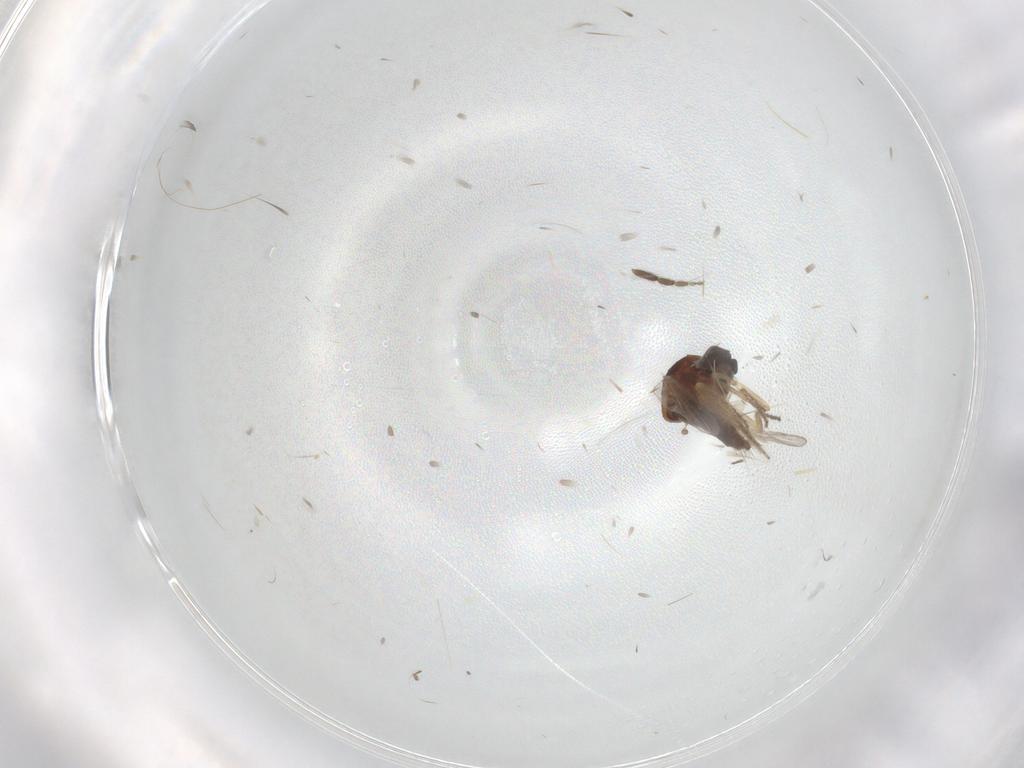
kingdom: Animalia
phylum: Arthropoda
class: Insecta
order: Diptera
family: Ceratopogonidae
